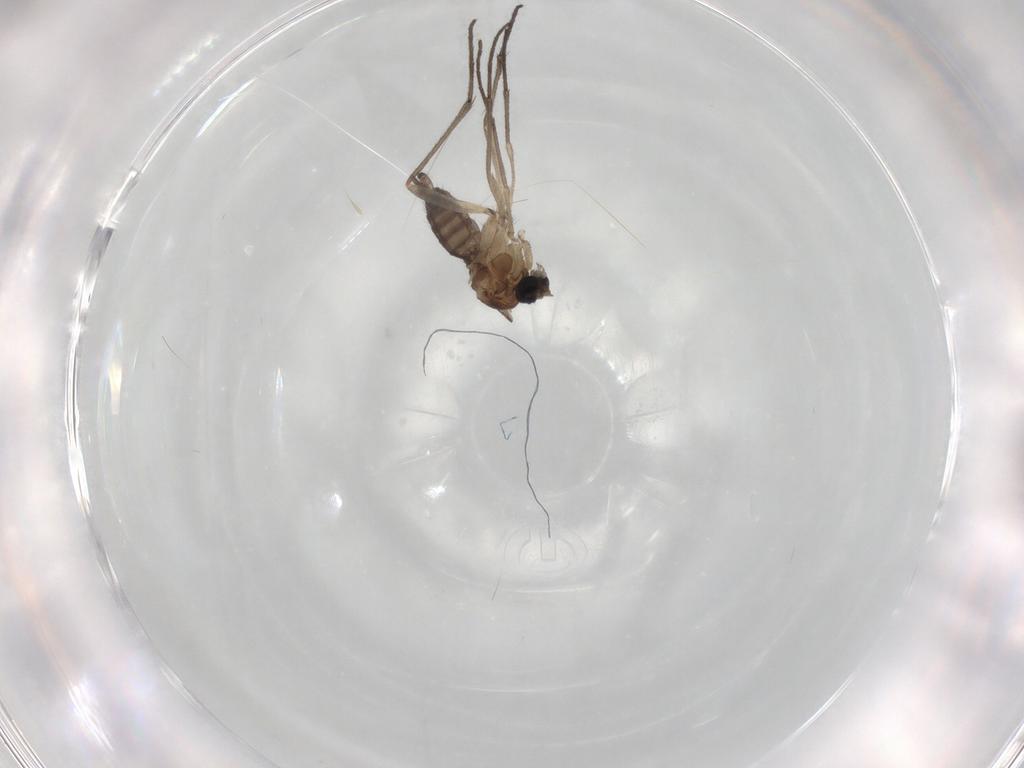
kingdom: Animalia
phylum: Arthropoda
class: Insecta
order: Diptera
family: Sciaridae
